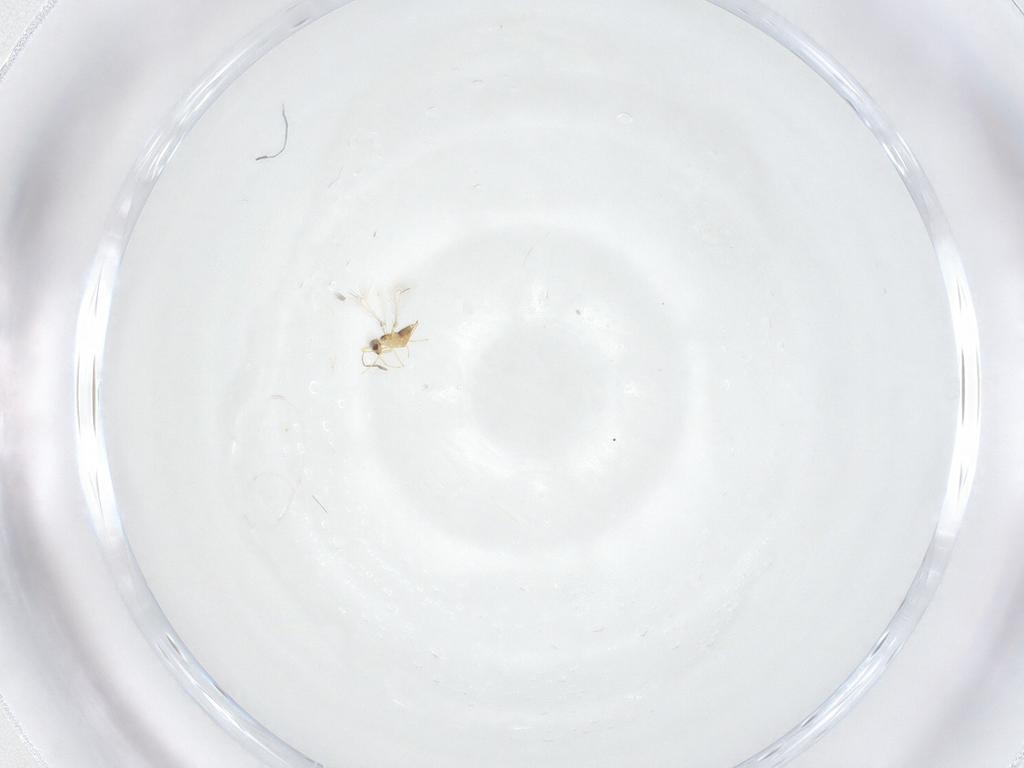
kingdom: Animalia
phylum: Arthropoda
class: Insecta
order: Hymenoptera
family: Mymaridae
